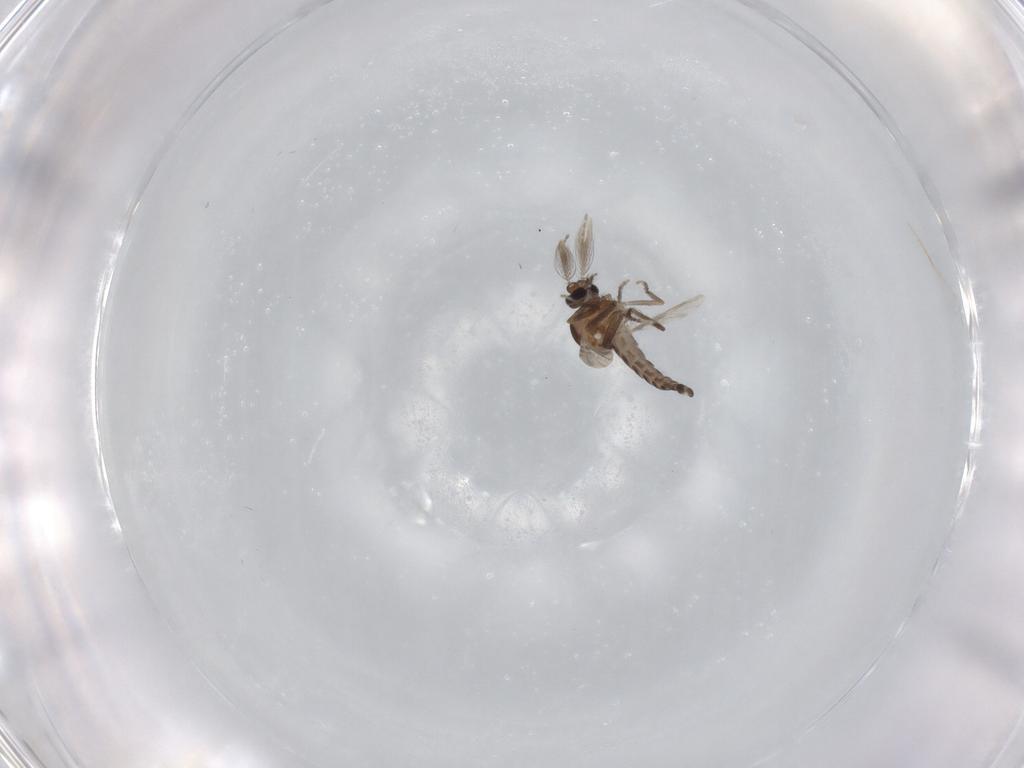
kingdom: Animalia
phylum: Arthropoda
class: Insecta
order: Diptera
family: Ceratopogonidae
